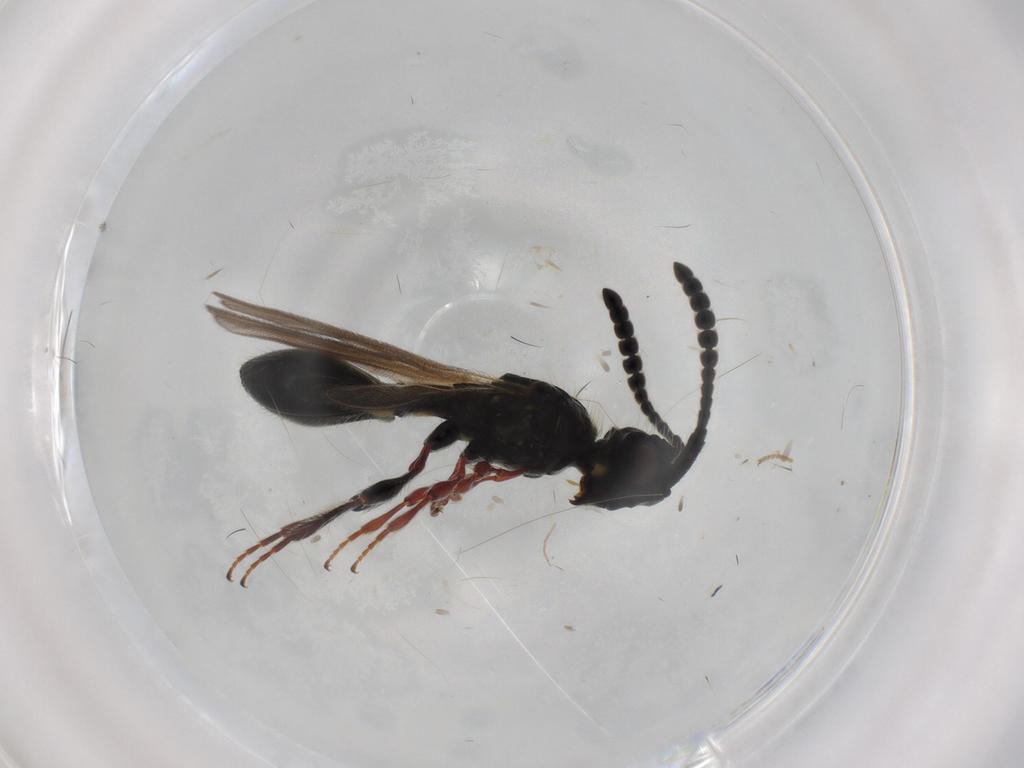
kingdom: Animalia
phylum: Arthropoda
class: Insecta
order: Hymenoptera
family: Diapriidae
